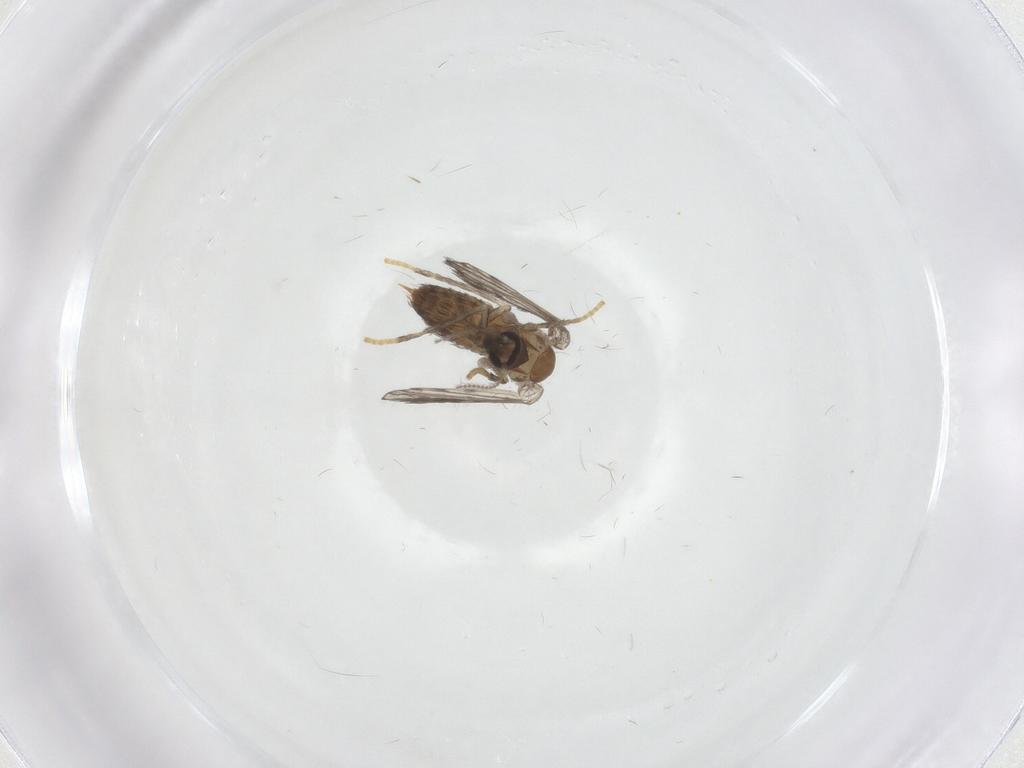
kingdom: Animalia
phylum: Arthropoda
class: Insecta
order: Diptera
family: Psychodidae
